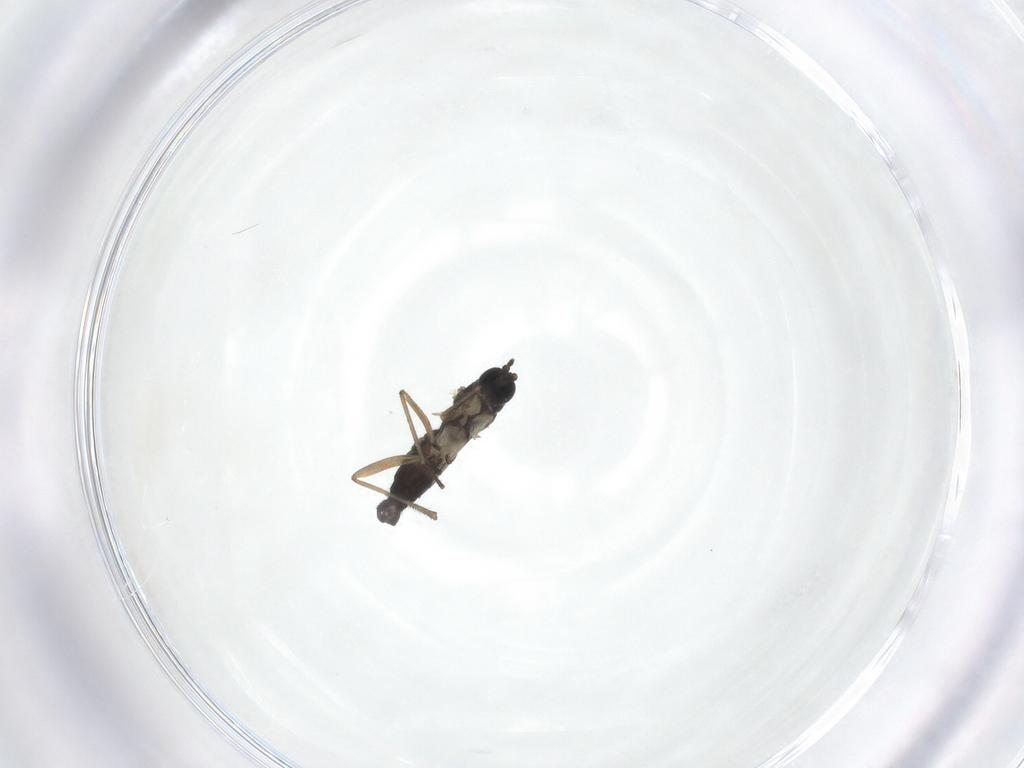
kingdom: Animalia
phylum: Arthropoda
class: Insecta
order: Diptera
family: Sciaridae
